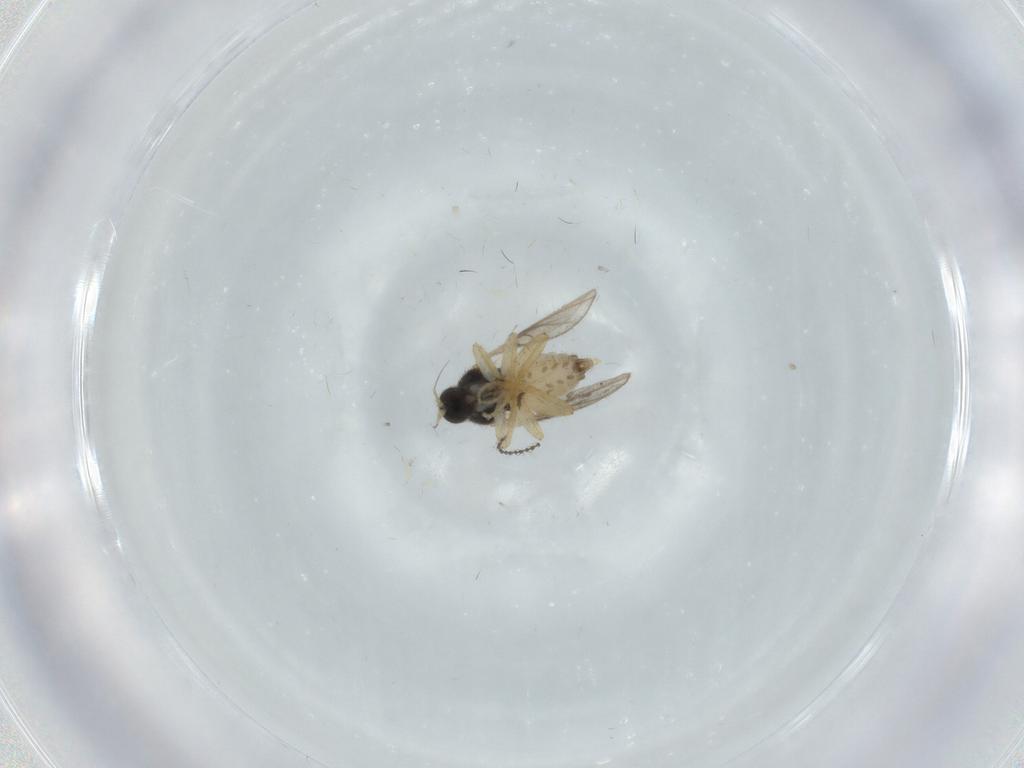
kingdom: Animalia
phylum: Arthropoda
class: Insecta
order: Diptera
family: Hybotidae
